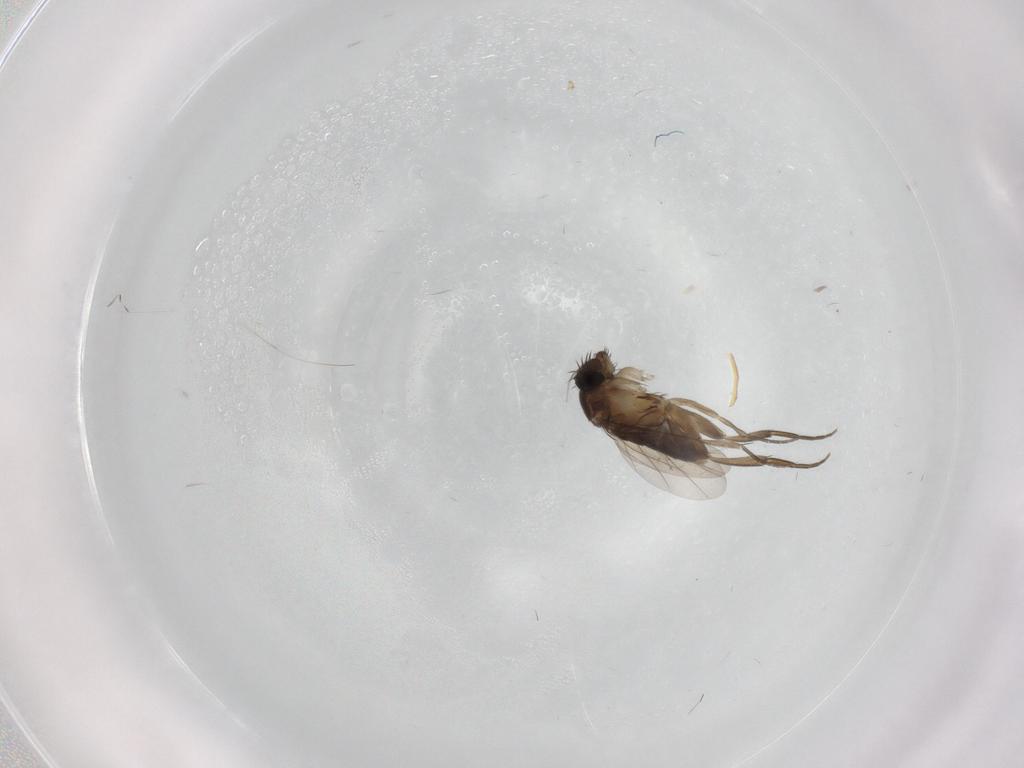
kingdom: Animalia
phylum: Arthropoda
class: Insecta
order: Diptera
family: Phoridae
